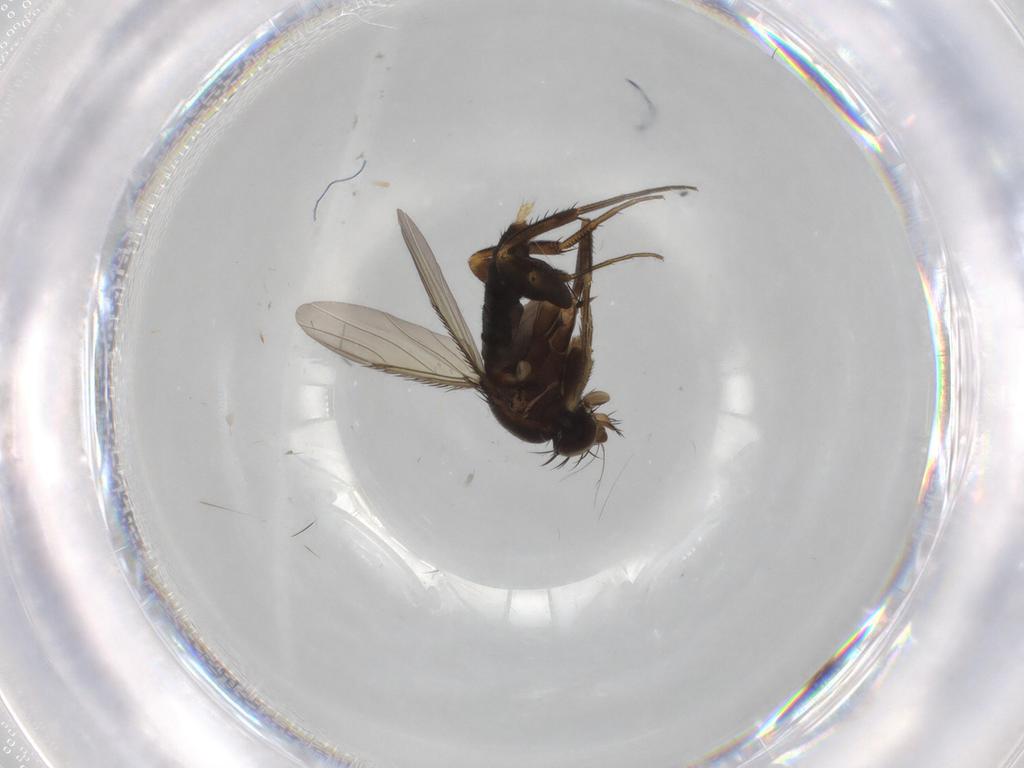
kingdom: Animalia
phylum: Arthropoda
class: Insecta
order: Diptera
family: Phoridae
